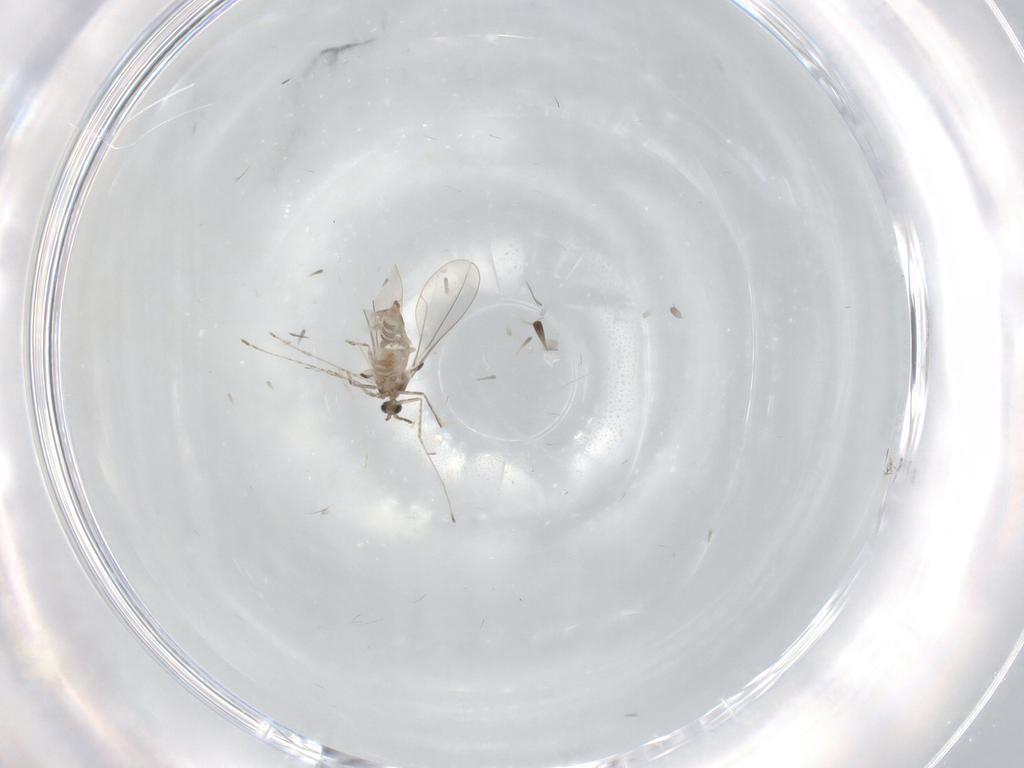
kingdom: Animalia
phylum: Arthropoda
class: Insecta
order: Diptera
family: Cecidomyiidae
